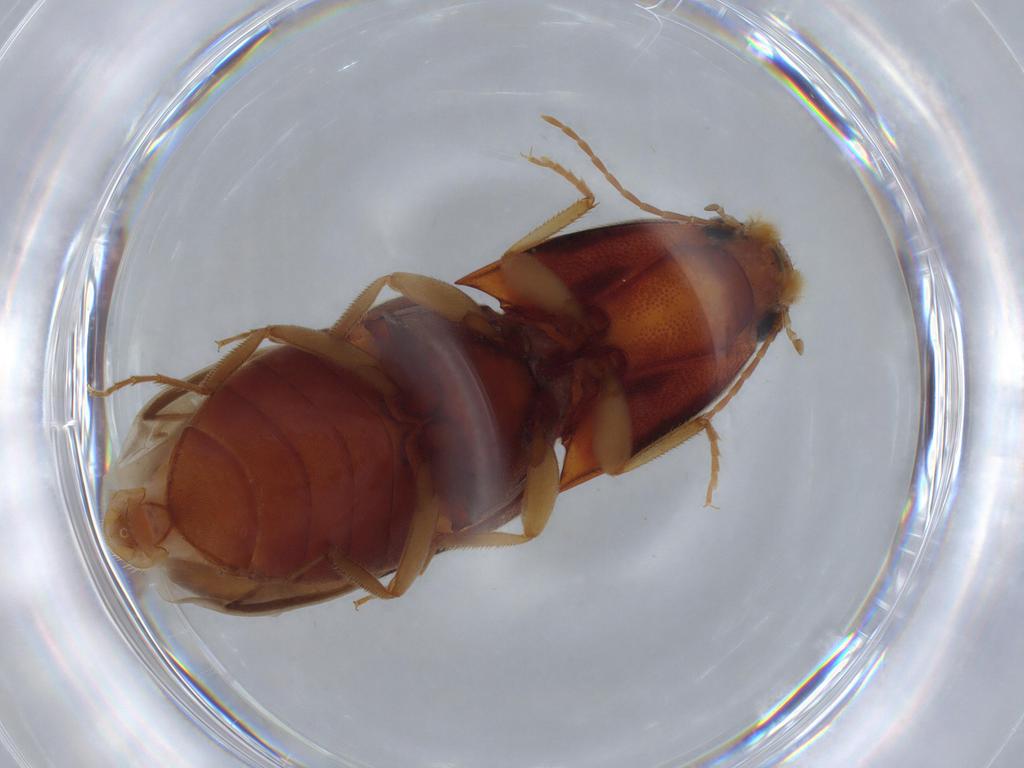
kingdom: Animalia
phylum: Arthropoda
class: Insecta
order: Coleoptera
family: Elateridae
